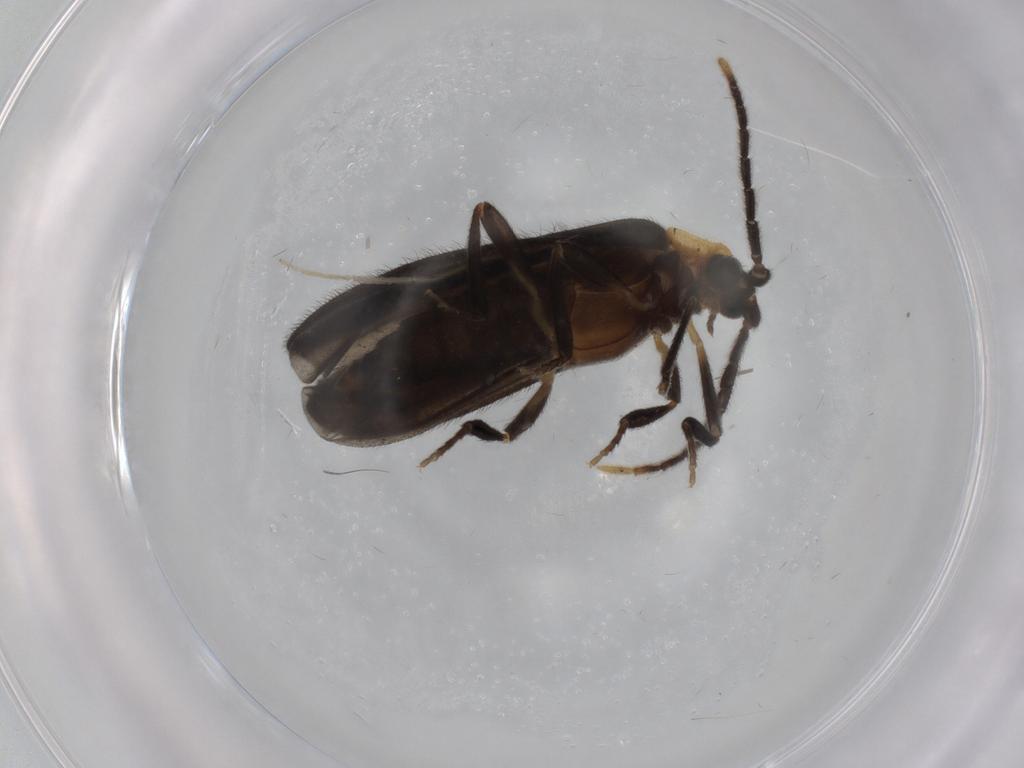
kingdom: Animalia
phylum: Arthropoda
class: Insecta
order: Coleoptera
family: Lycidae
